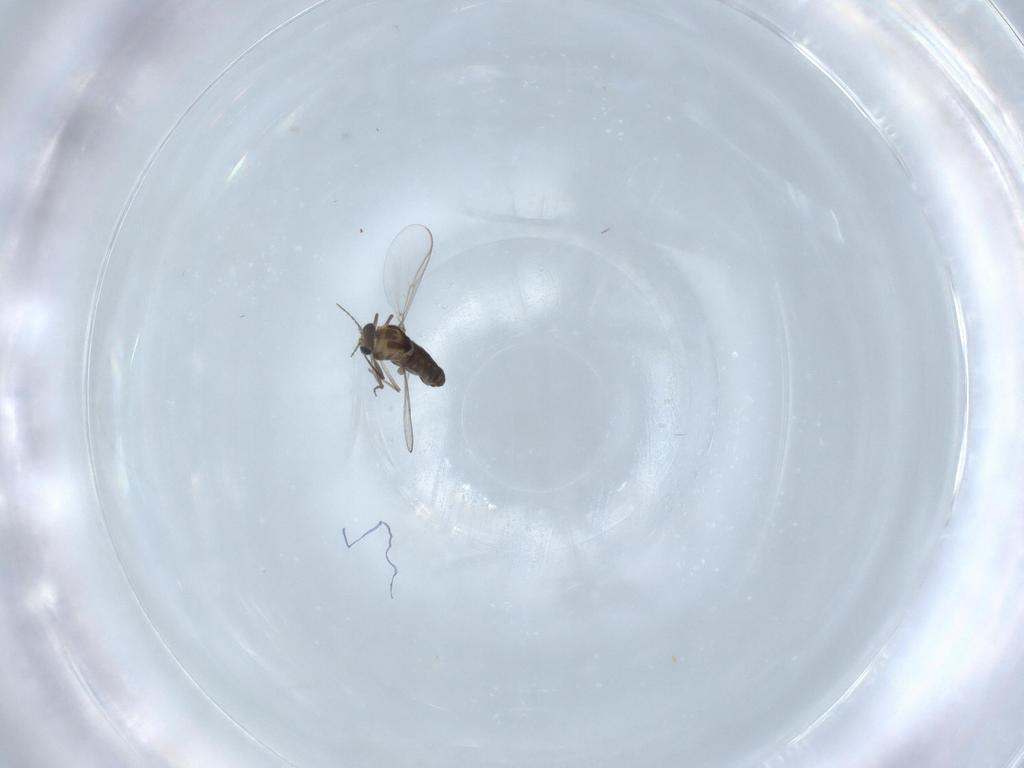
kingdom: Animalia
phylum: Arthropoda
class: Insecta
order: Diptera
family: Chironomidae
